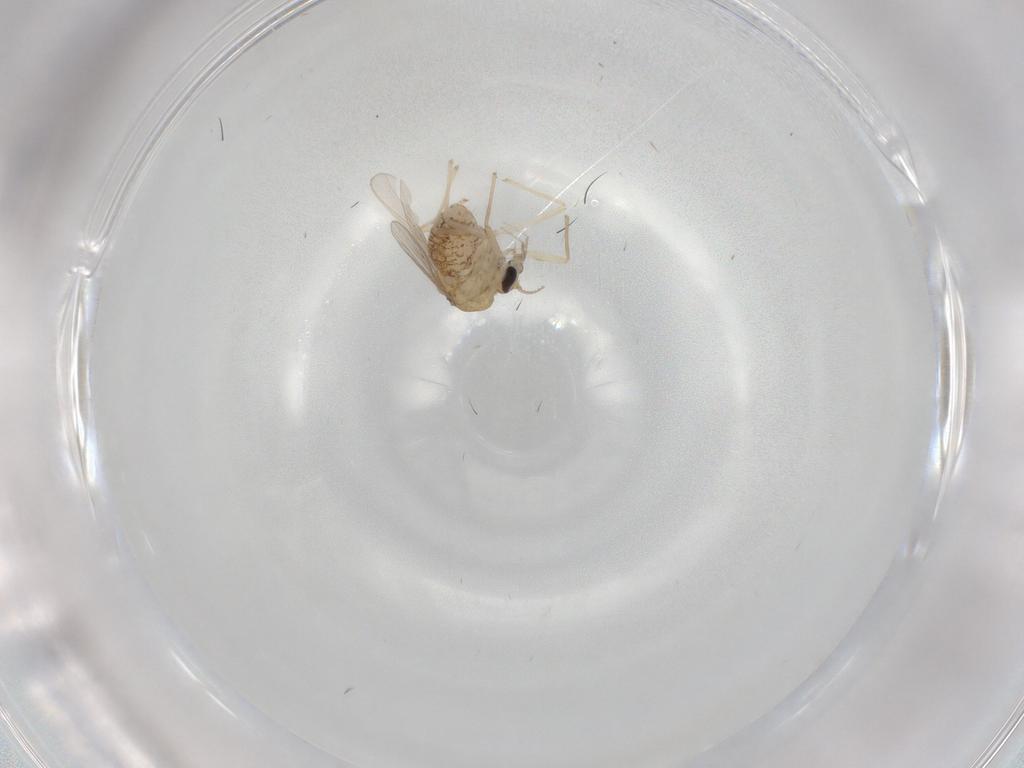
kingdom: Animalia
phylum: Arthropoda
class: Insecta
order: Diptera
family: Chironomidae
